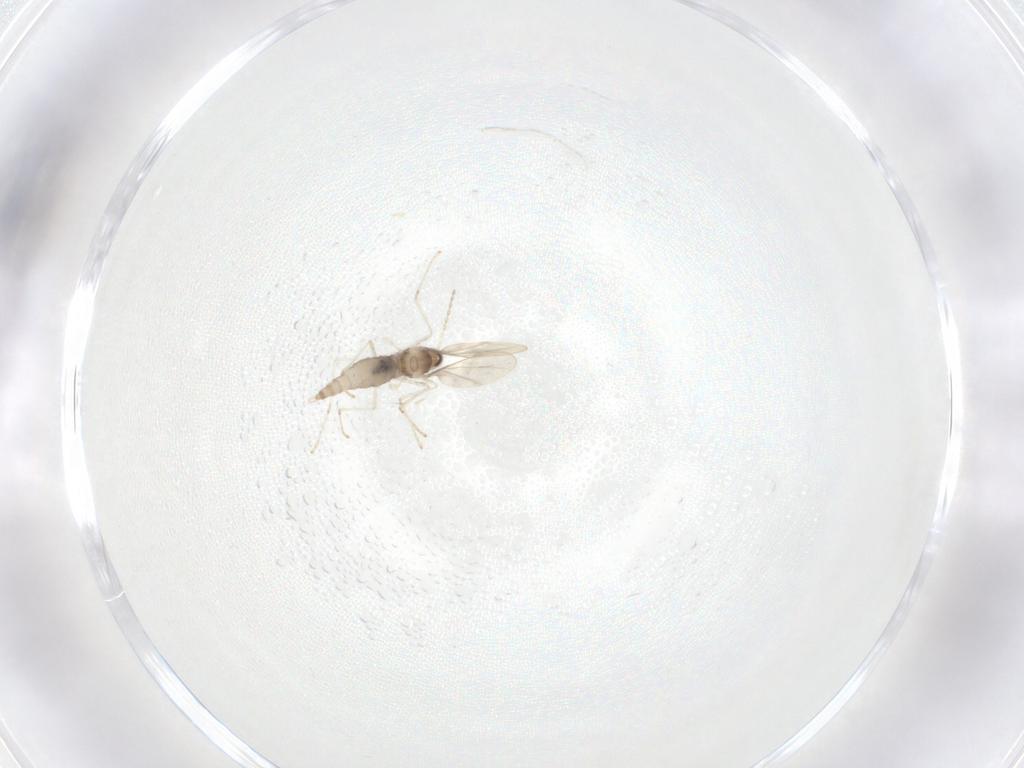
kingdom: Animalia
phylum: Arthropoda
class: Insecta
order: Diptera
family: Cecidomyiidae
